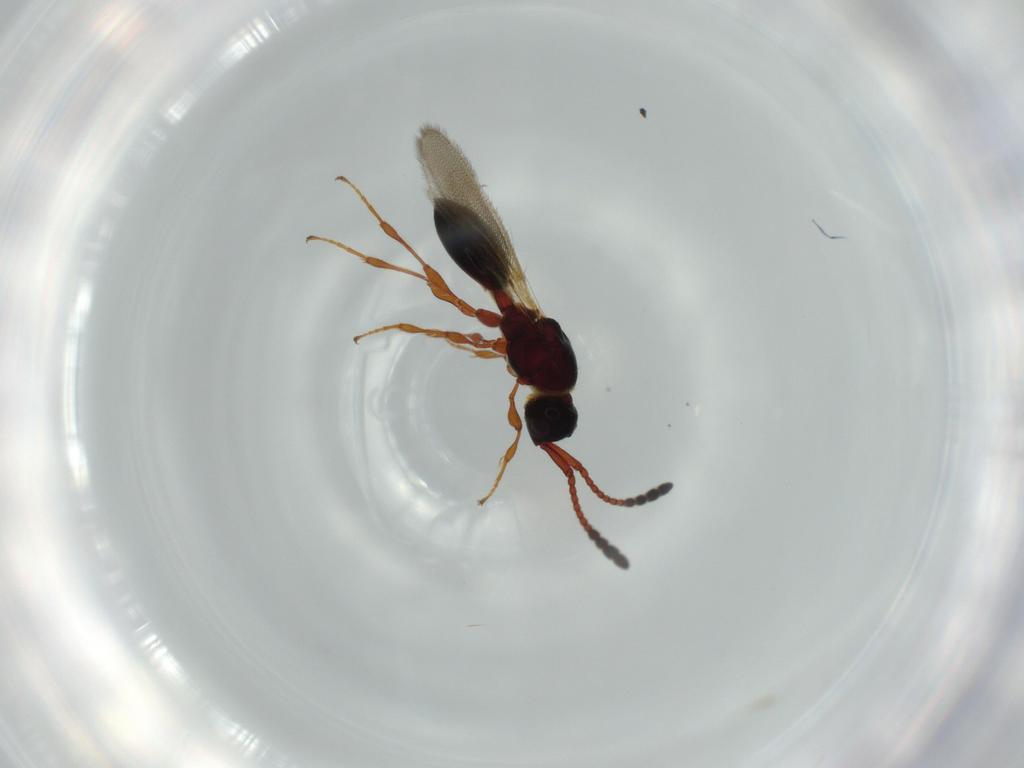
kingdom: Animalia
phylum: Arthropoda
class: Insecta
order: Hymenoptera
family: Diapriidae
